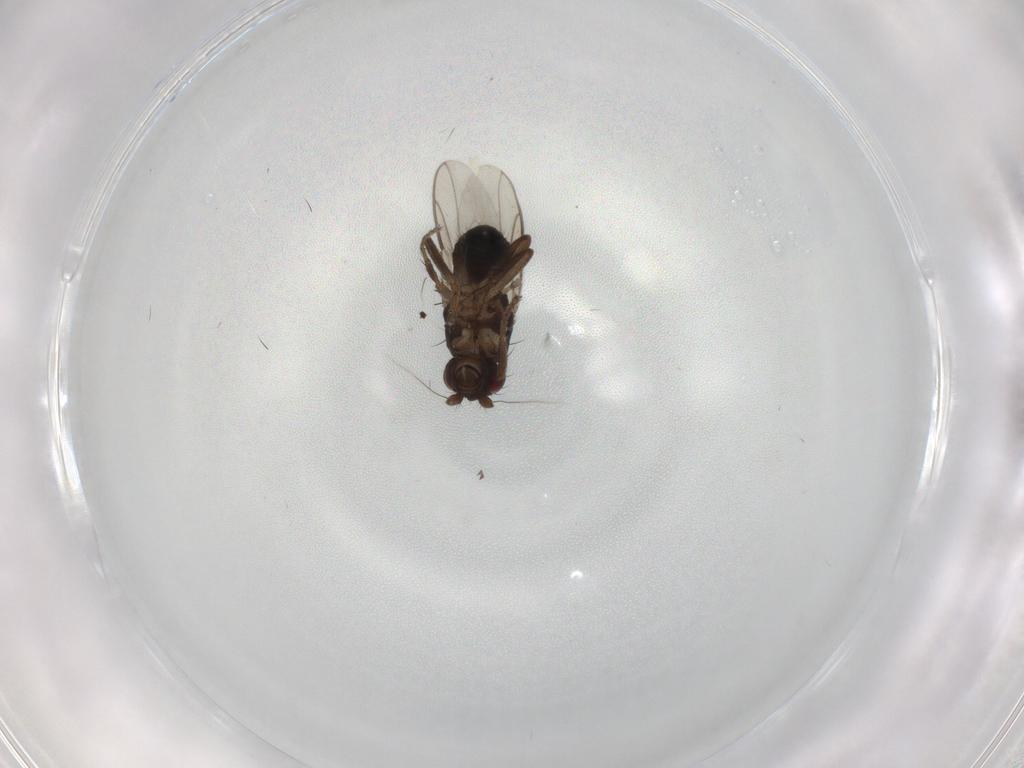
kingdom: Animalia
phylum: Arthropoda
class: Insecta
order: Diptera
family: Sphaeroceridae
